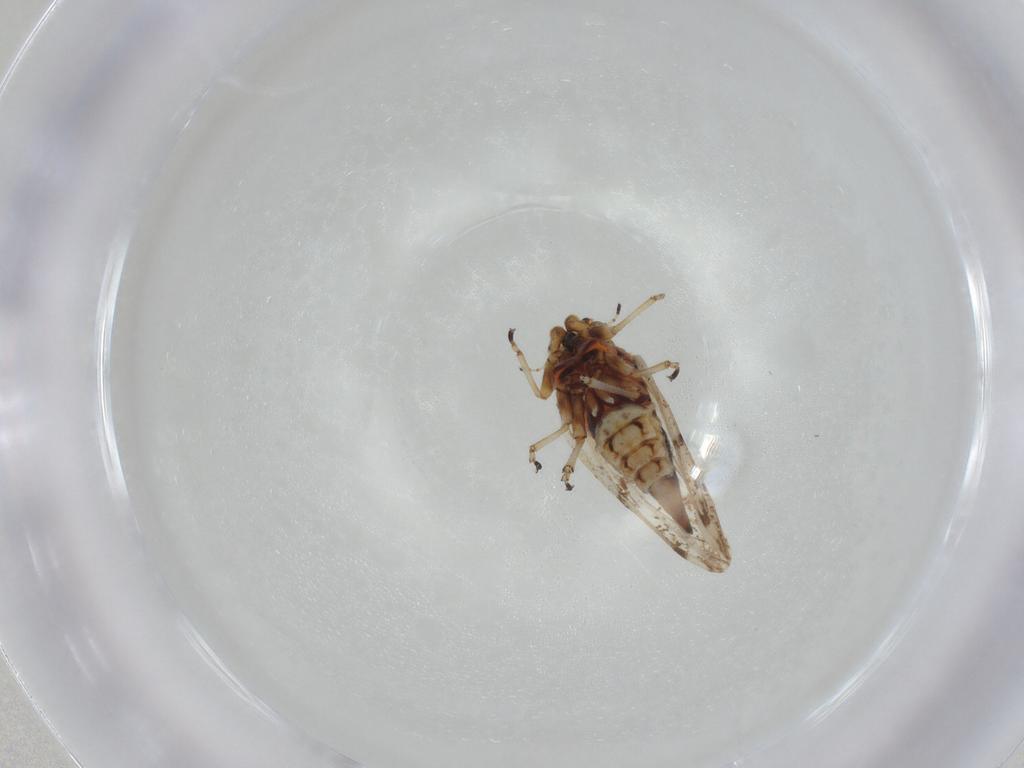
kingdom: Animalia
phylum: Arthropoda
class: Insecta
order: Hemiptera
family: Psylloidea_incertae_sedis
